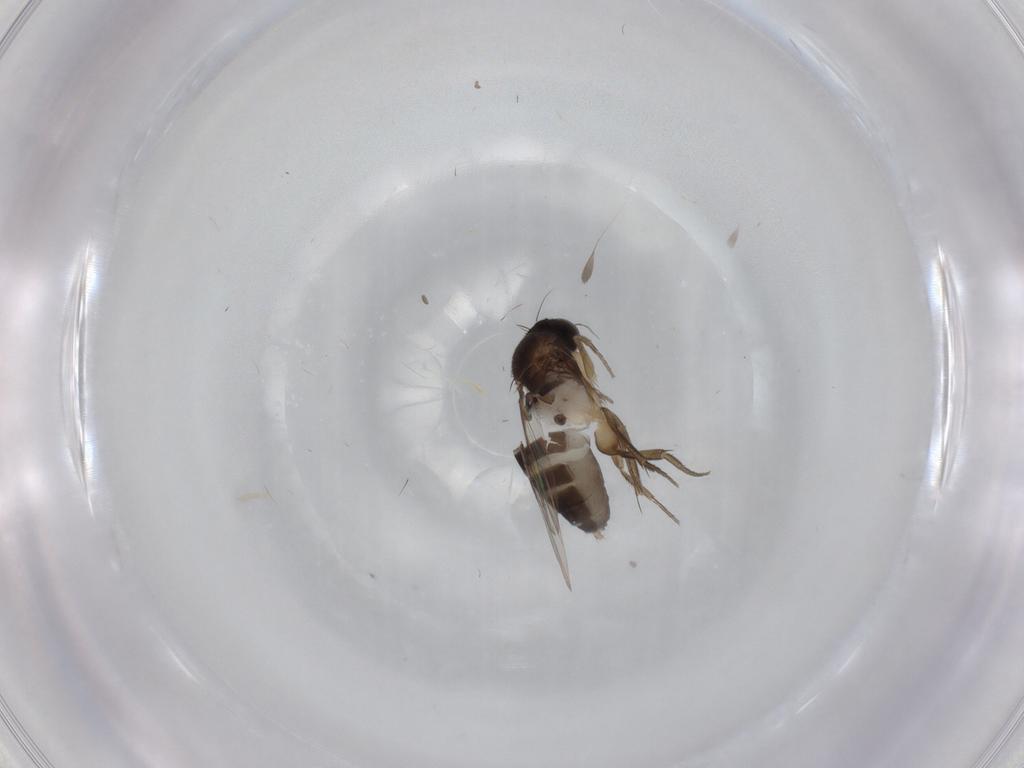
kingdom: Animalia
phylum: Arthropoda
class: Insecta
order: Diptera
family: Sciaridae
